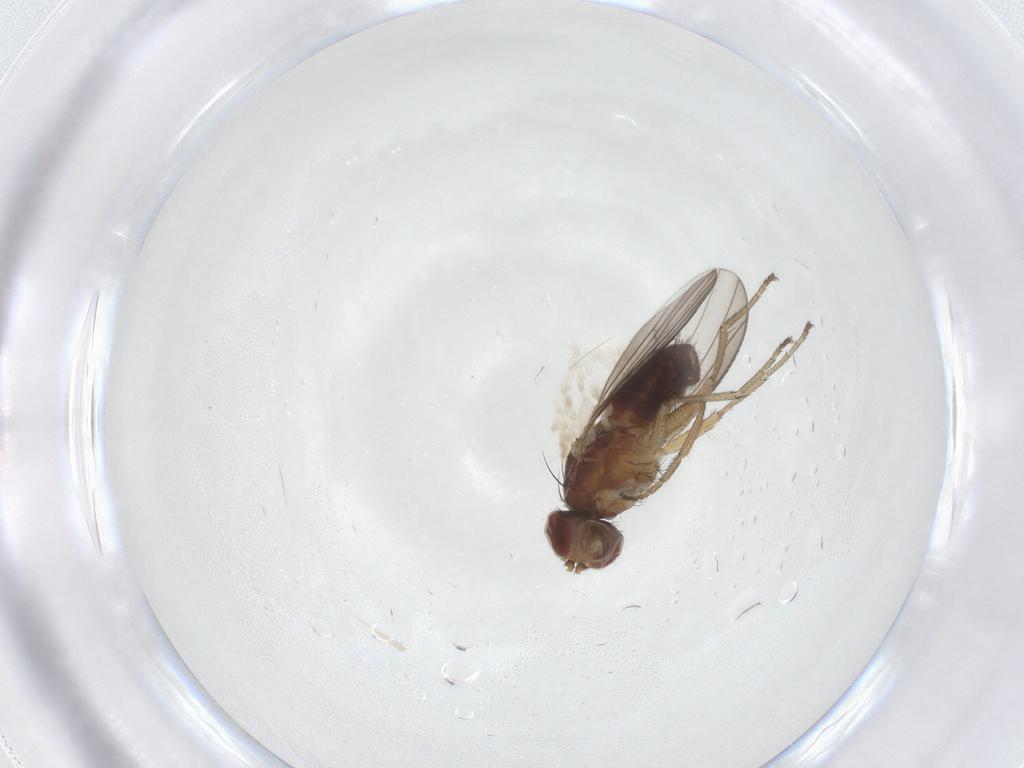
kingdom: Animalia
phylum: Arthropoda
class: Insecta
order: Diptera
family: Heleomyzidae
